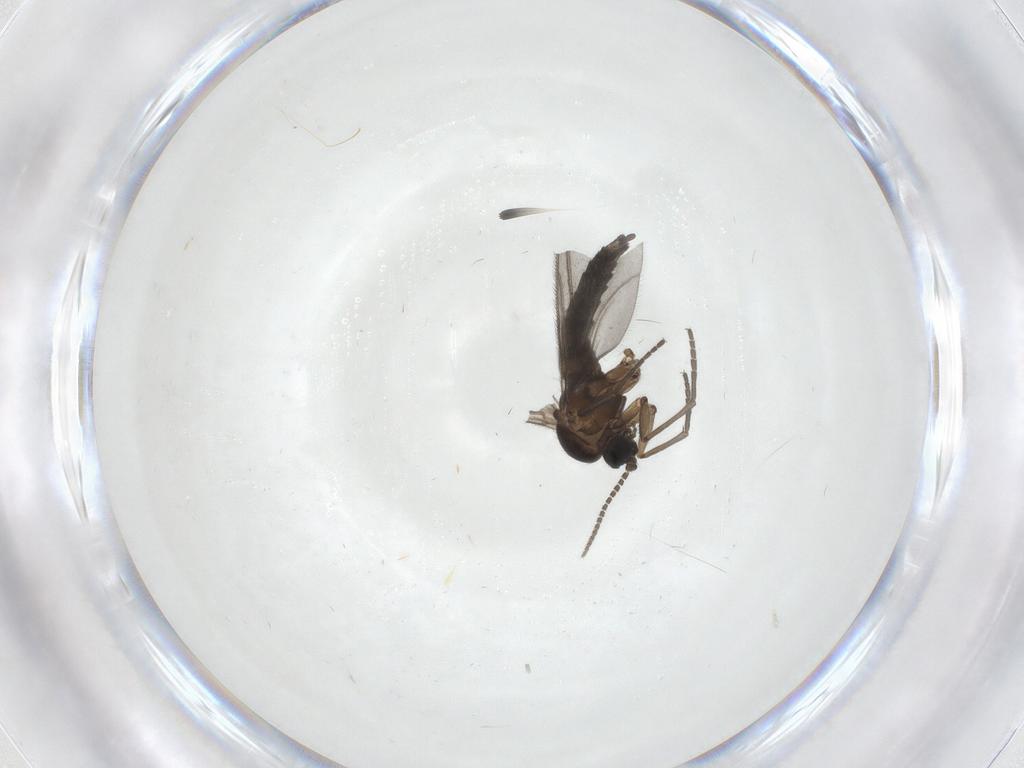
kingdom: Animalia
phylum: Arthropoda
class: Insecta
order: Diptera
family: Sciaridae
